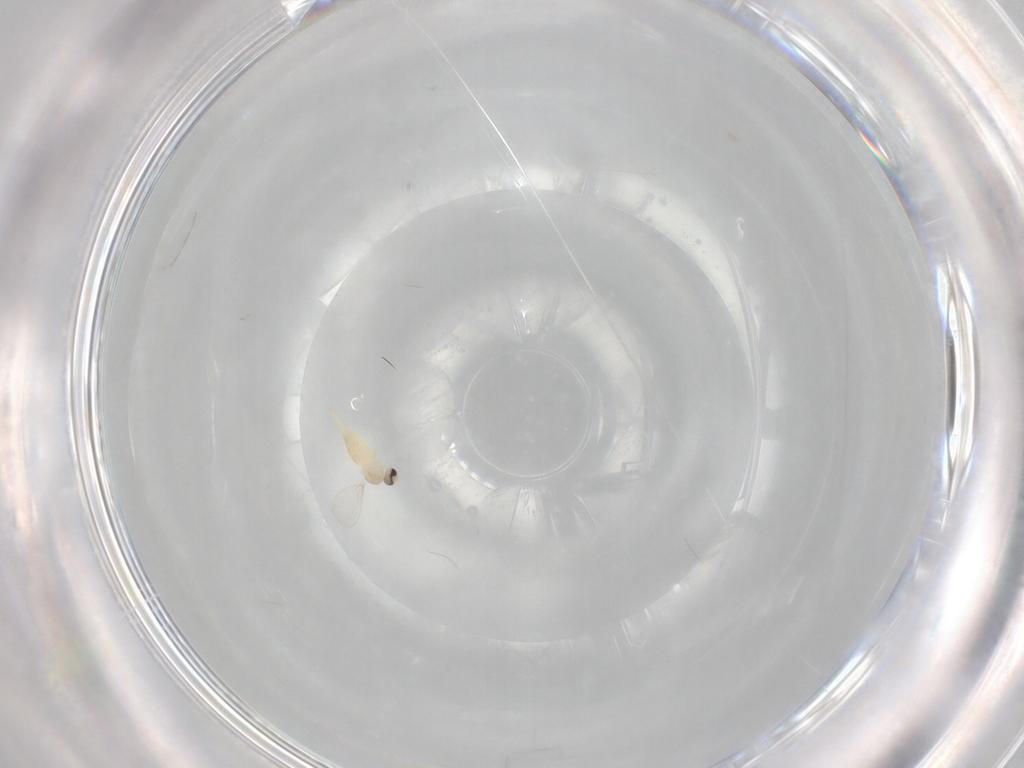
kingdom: Animalia
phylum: Arthropoda
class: Insecta
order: Diptera
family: Cecidomyiidae
